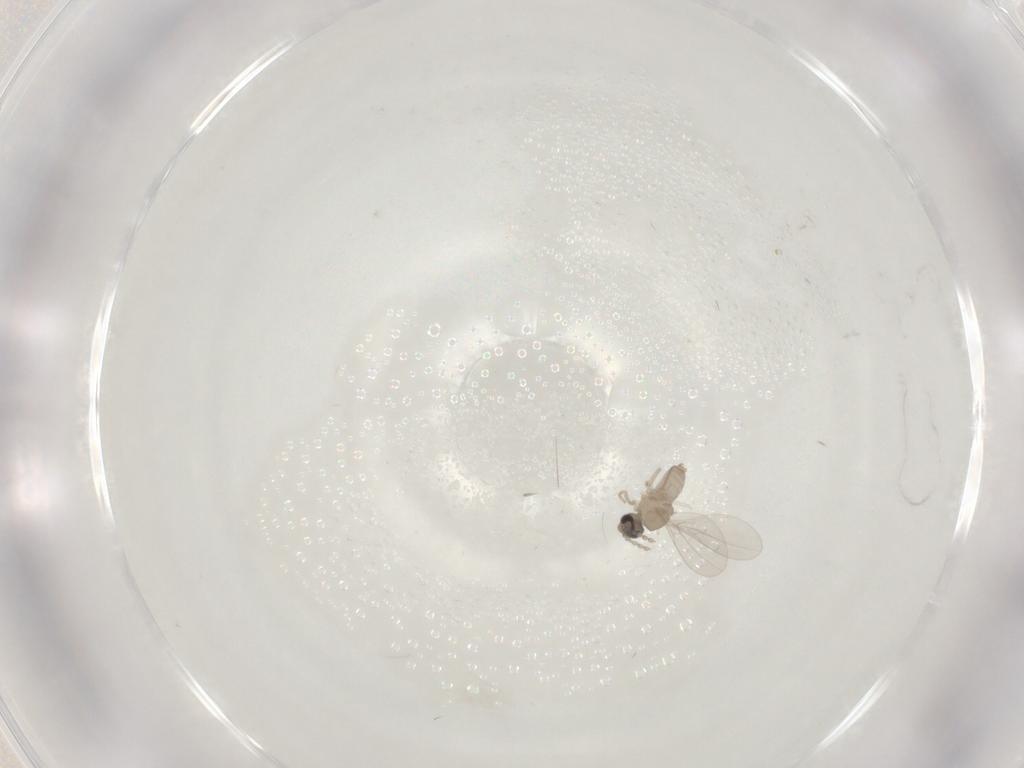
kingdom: Animalia
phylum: Arthropoda
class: Insecta
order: Diptera
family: Cecidomyiidae
